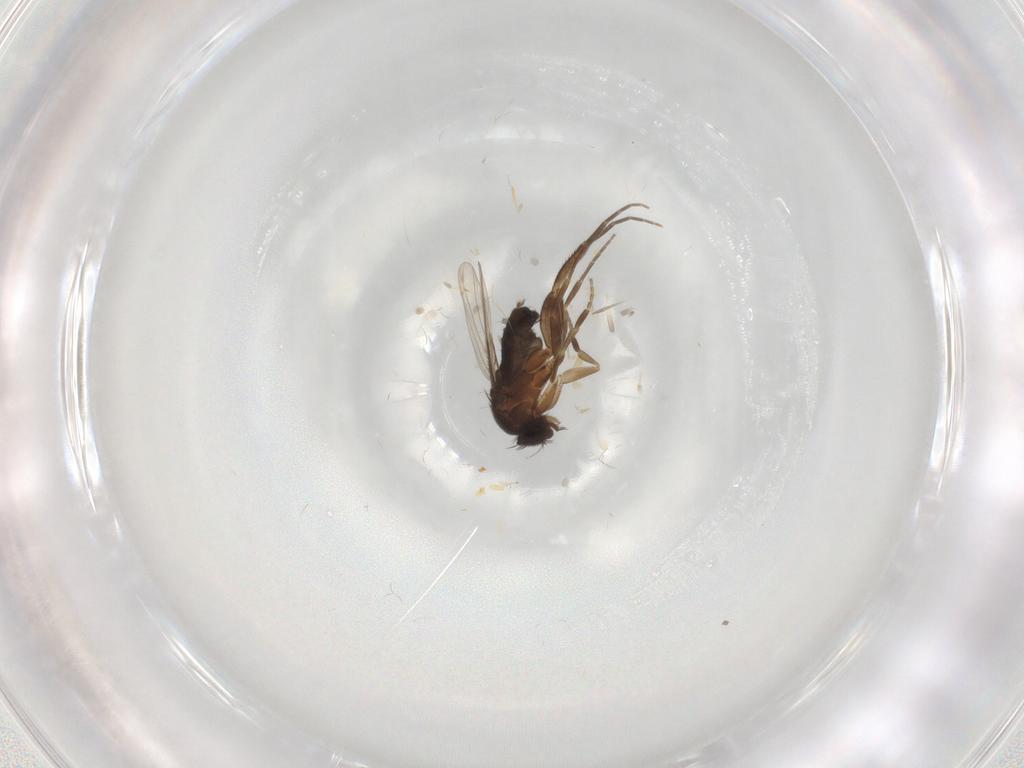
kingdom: Animalia
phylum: Arthropoda
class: Insecta
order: Diptera
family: Phoridae
